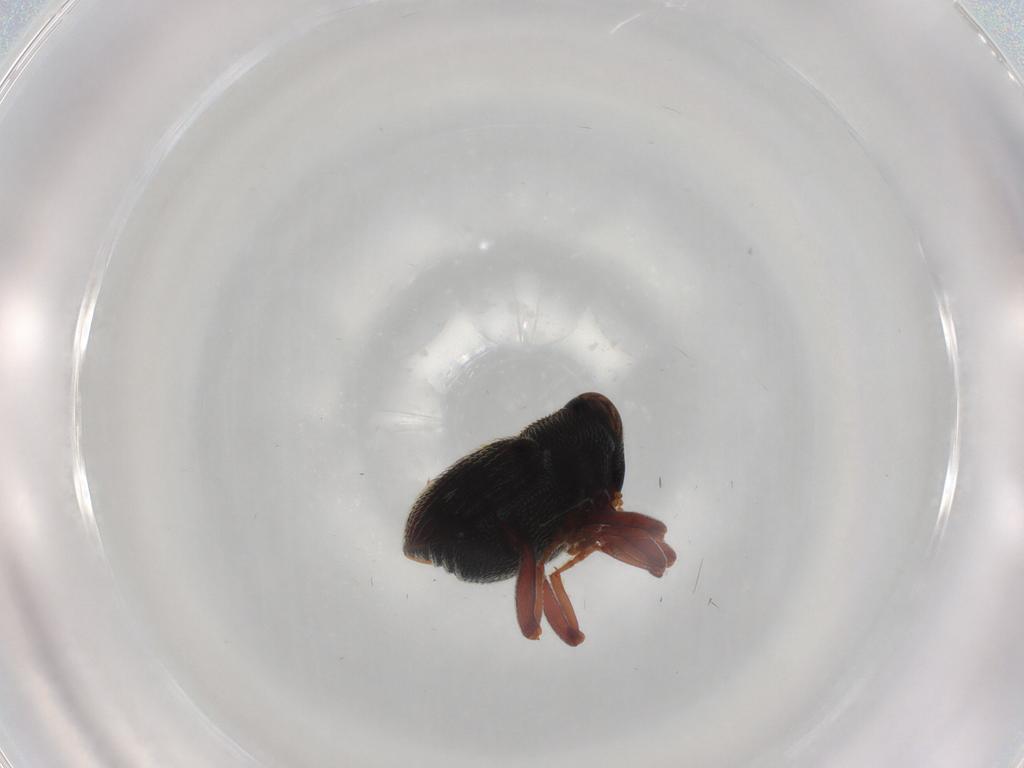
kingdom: Animalia
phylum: Arthropoda
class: Insecta
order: Coleoptera
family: Curculionidae
